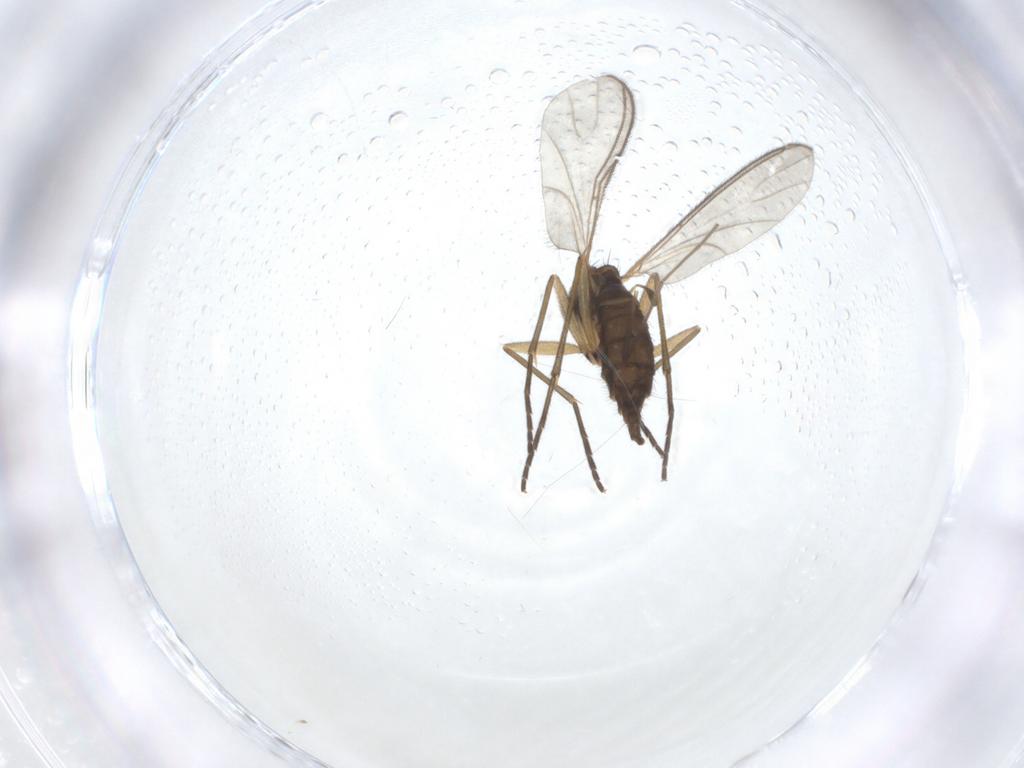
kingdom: Animalia
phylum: Arthropoda
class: Insecta
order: Diptera
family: Sciaridae
